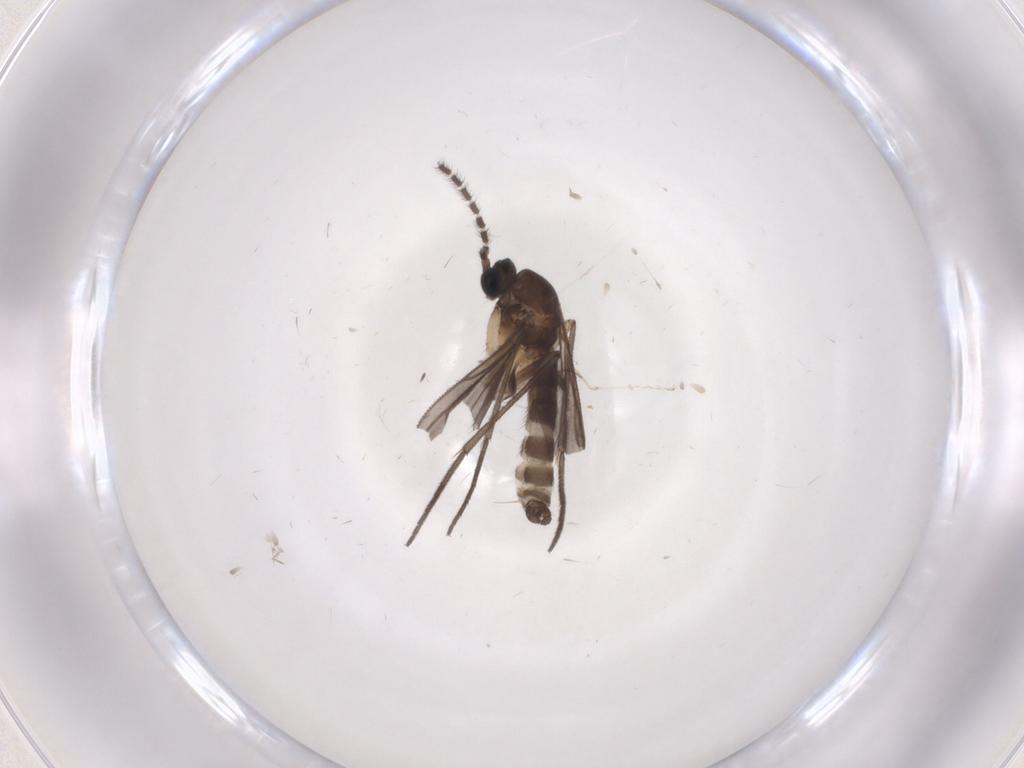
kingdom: Animalia
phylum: Arthropoda
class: Insecta
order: Diptera
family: Sciaridae
